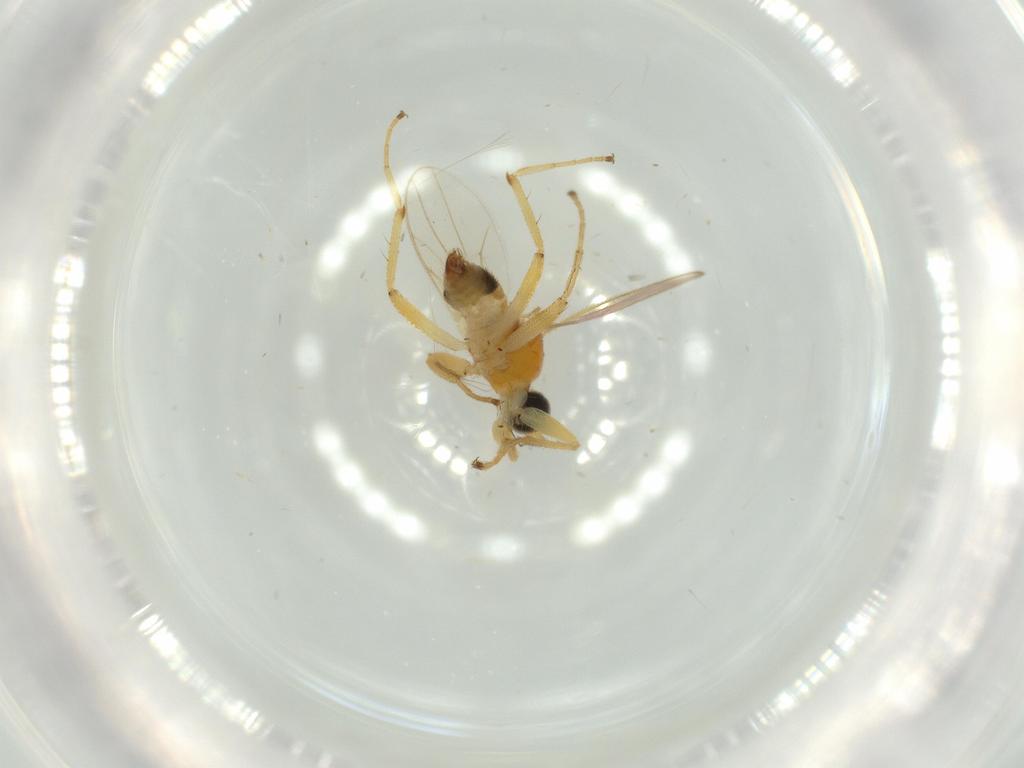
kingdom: Animalia
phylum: Arthropoda
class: Insecta
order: Diptera
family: Hybotidae
